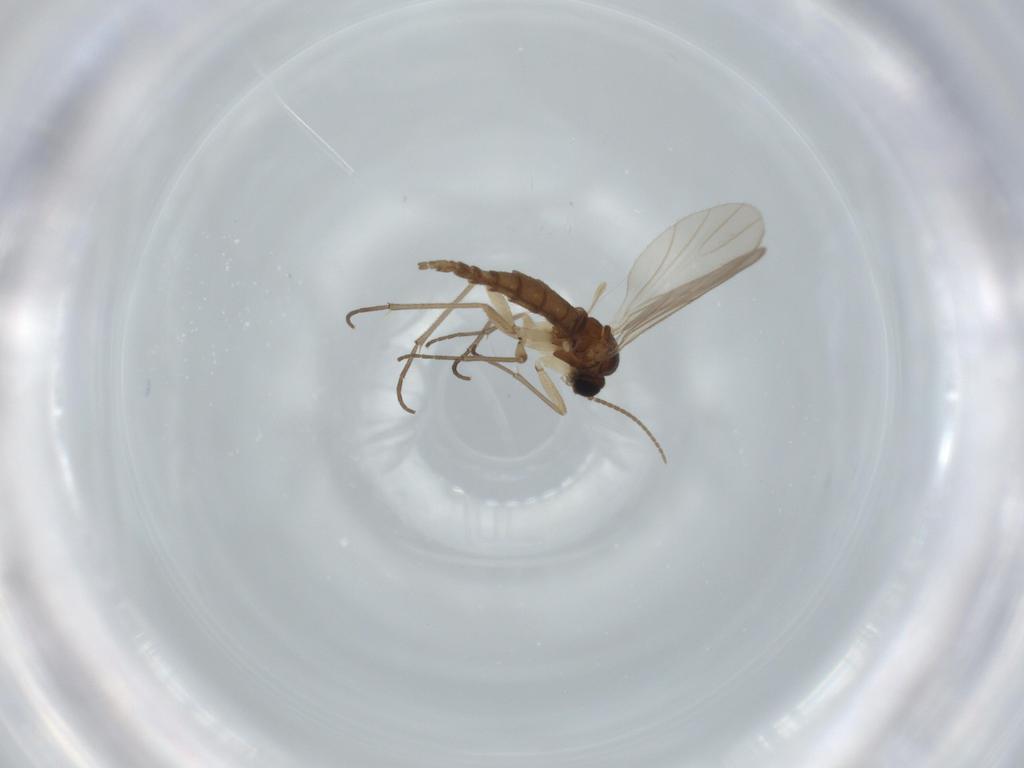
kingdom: Animalia
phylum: Arthropoda
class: Insecta
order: Diptera
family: Sciaridae
